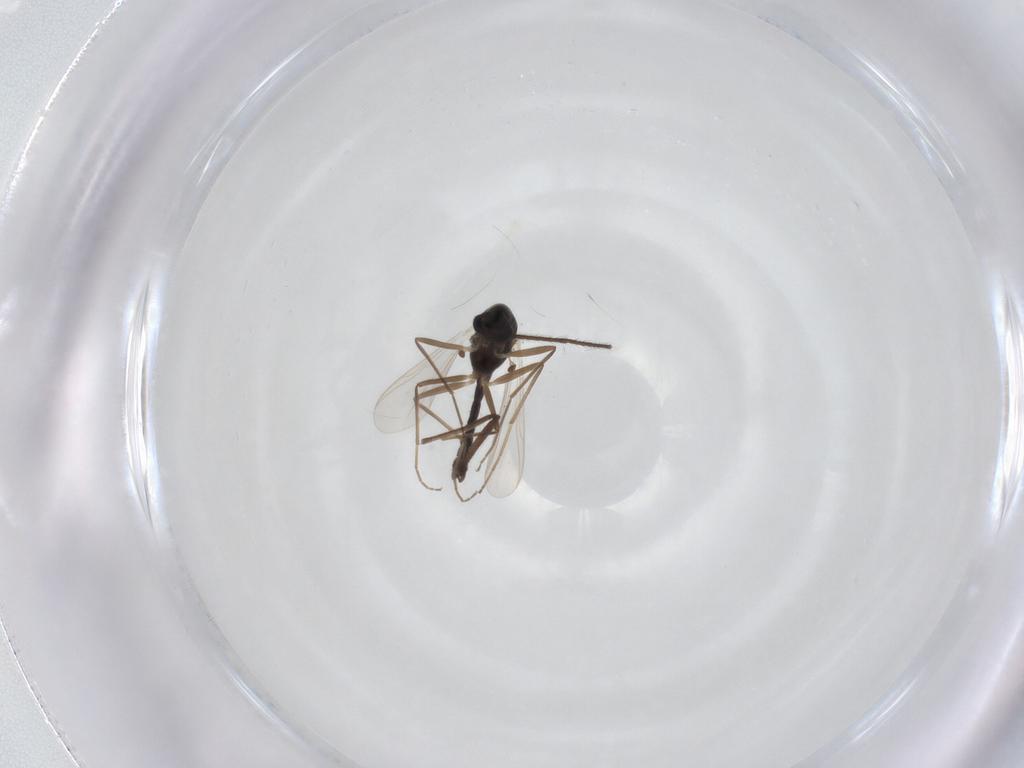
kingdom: Animalia
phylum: Arthropoda
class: Insecta
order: Diptera
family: Chironomidae
